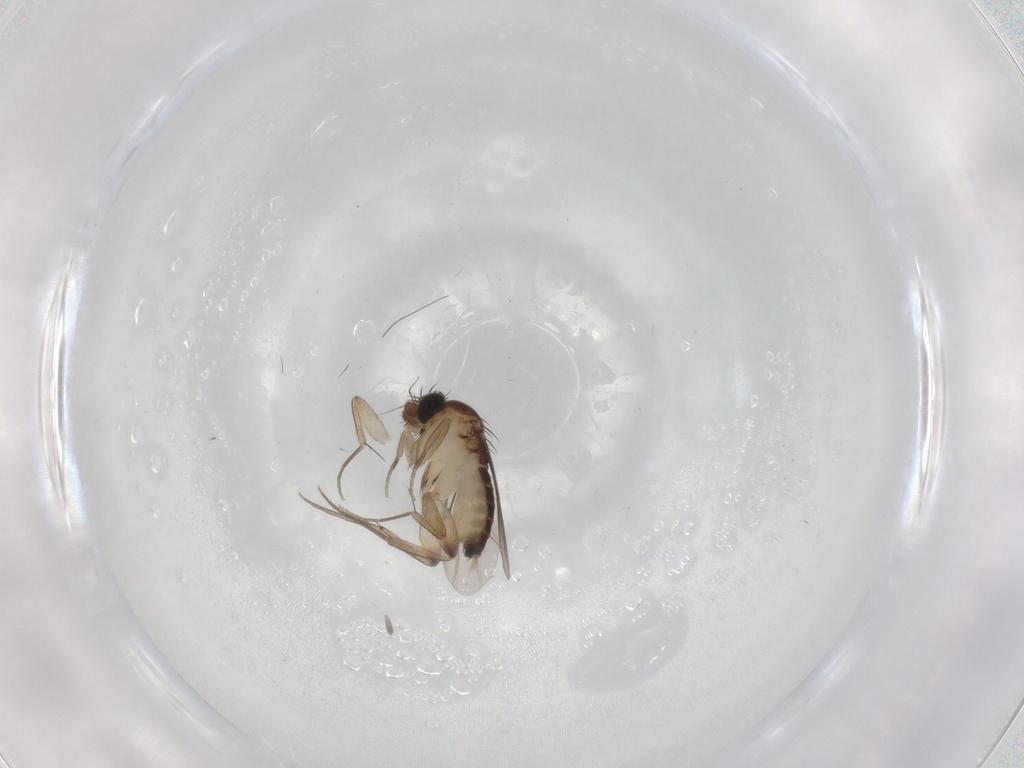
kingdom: Animalia
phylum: Arthropoda
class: Insecta
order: Diptera
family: Phoridae
